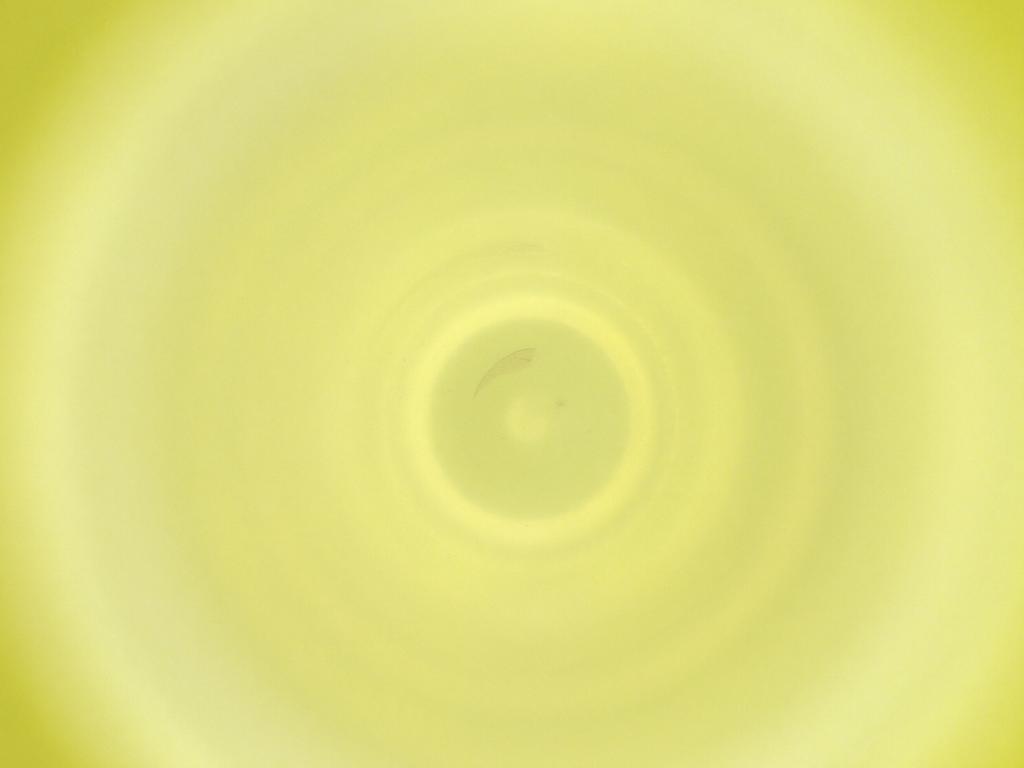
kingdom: Animalia
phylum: Arthropoda
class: Insecta
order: Diptera
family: Cecidomyiidae
